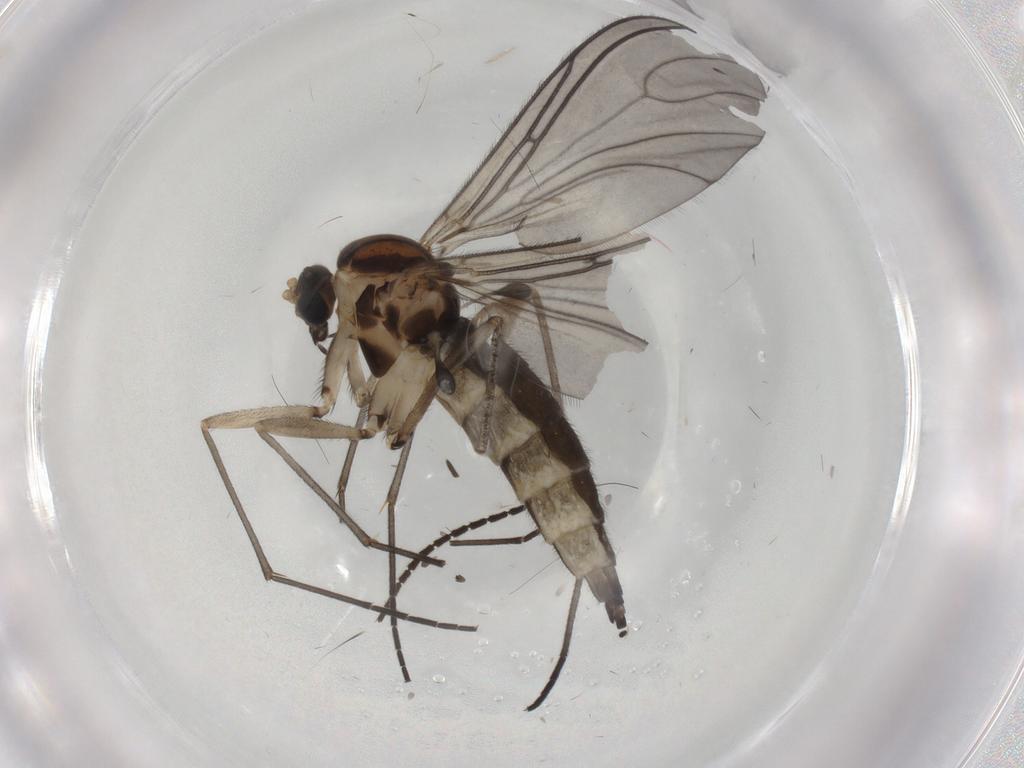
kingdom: Animalia
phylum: Arthropoda
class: Insecta
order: Diptera
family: Sciaridae
